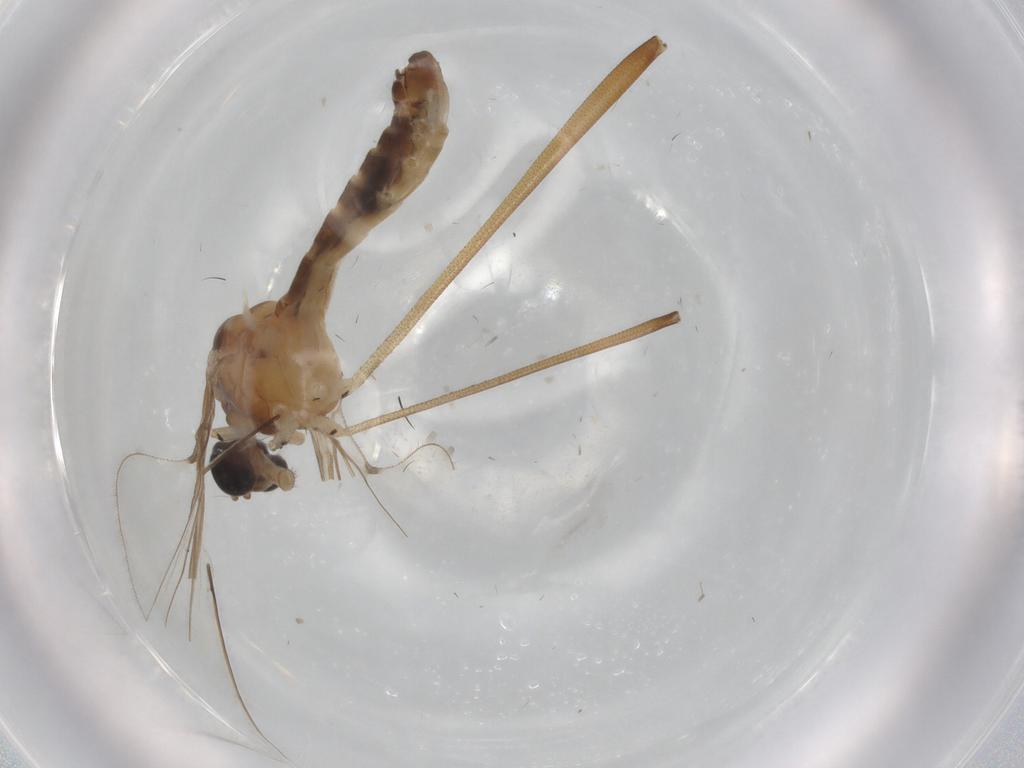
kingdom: Animalia
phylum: Arthropoda
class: Insecta
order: Diptera
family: Blephariceridae
